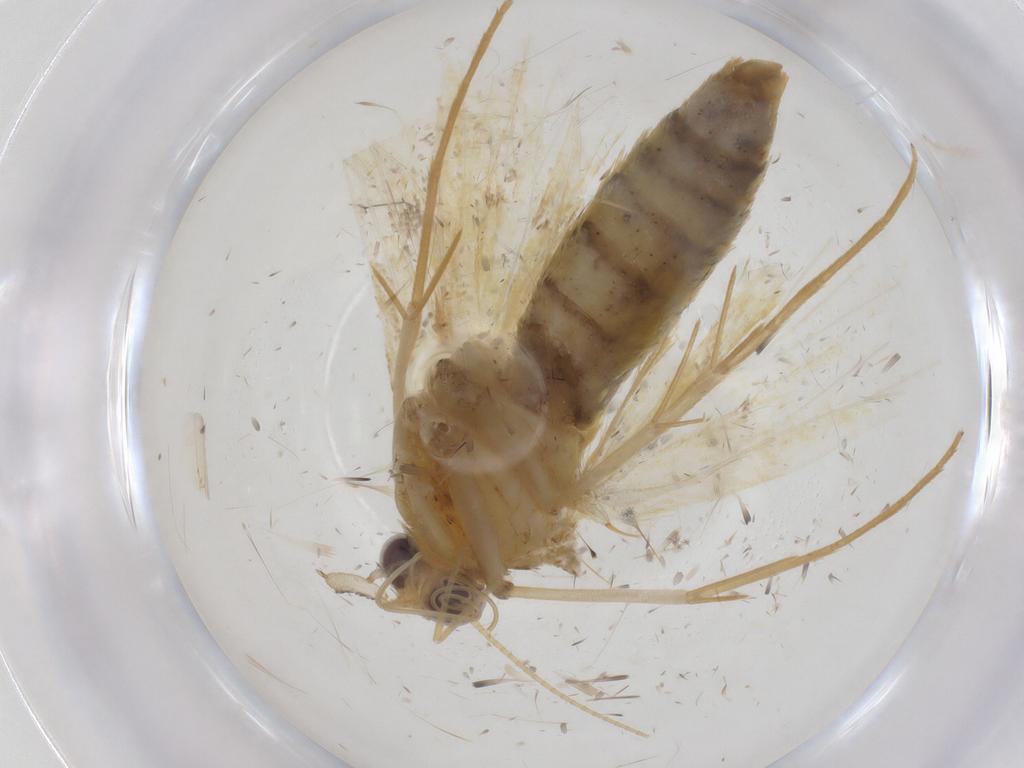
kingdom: Animalia
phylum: Arthropoda
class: Insecta
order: Lepidoptera
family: Crambidae
